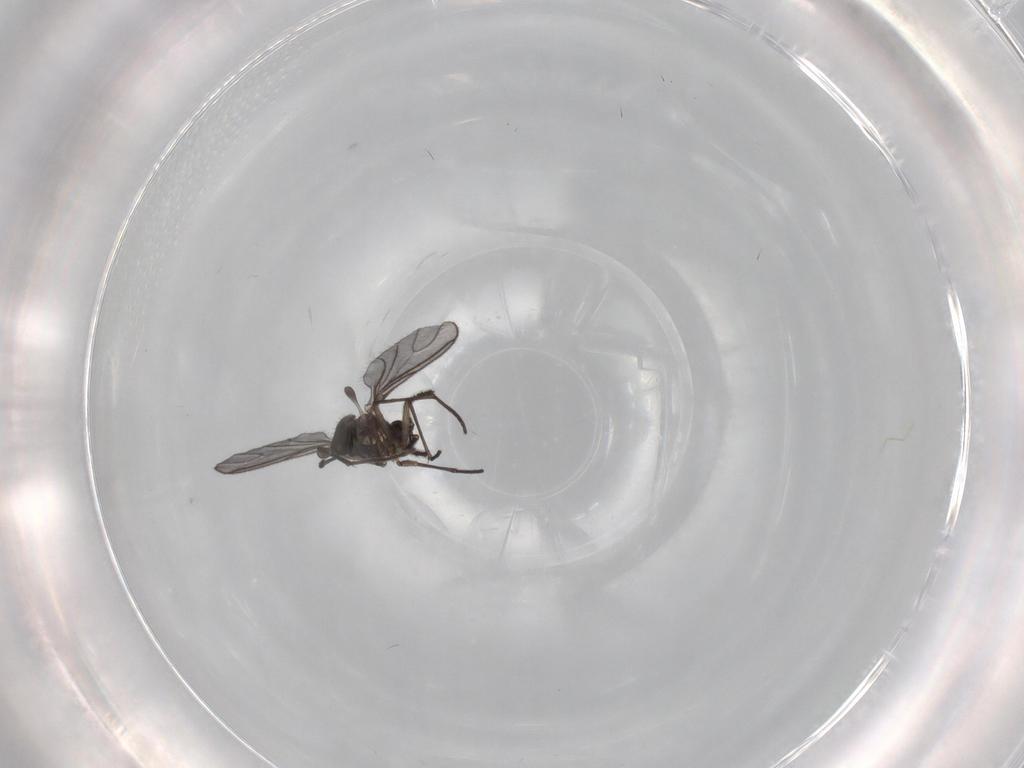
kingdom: Animalia
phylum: Arthropoda
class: Insecta
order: Diptera
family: Sciaridae
